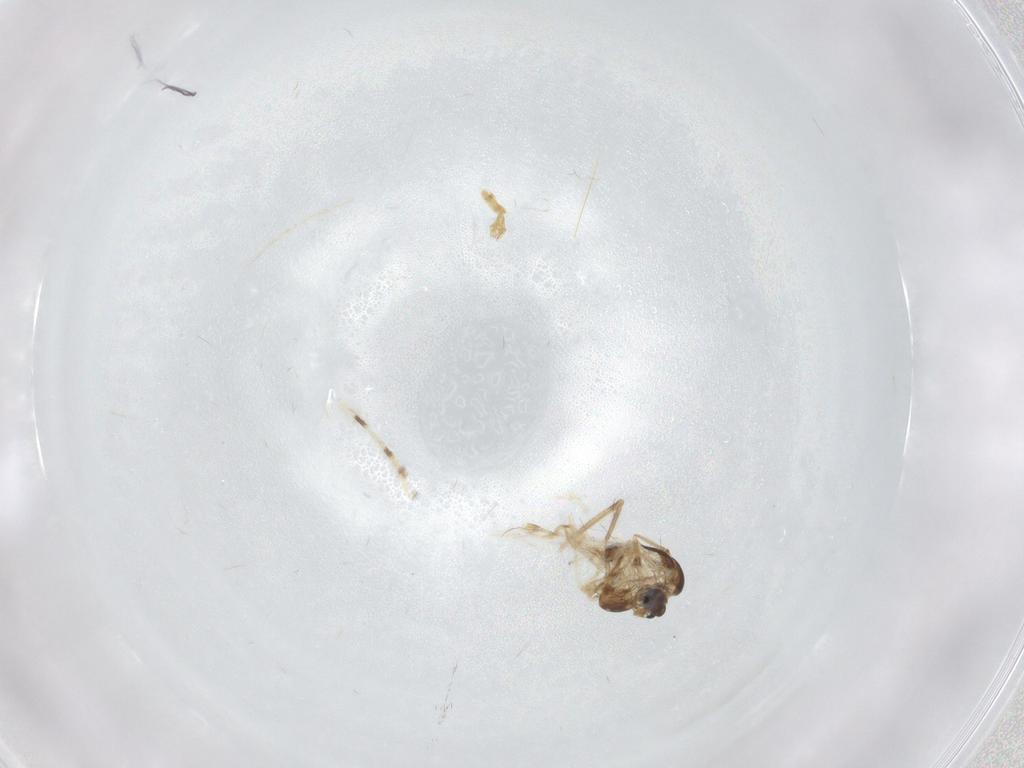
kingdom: Animalia
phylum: Arthropoda
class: Insecta
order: Diptera
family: Chironomidae
